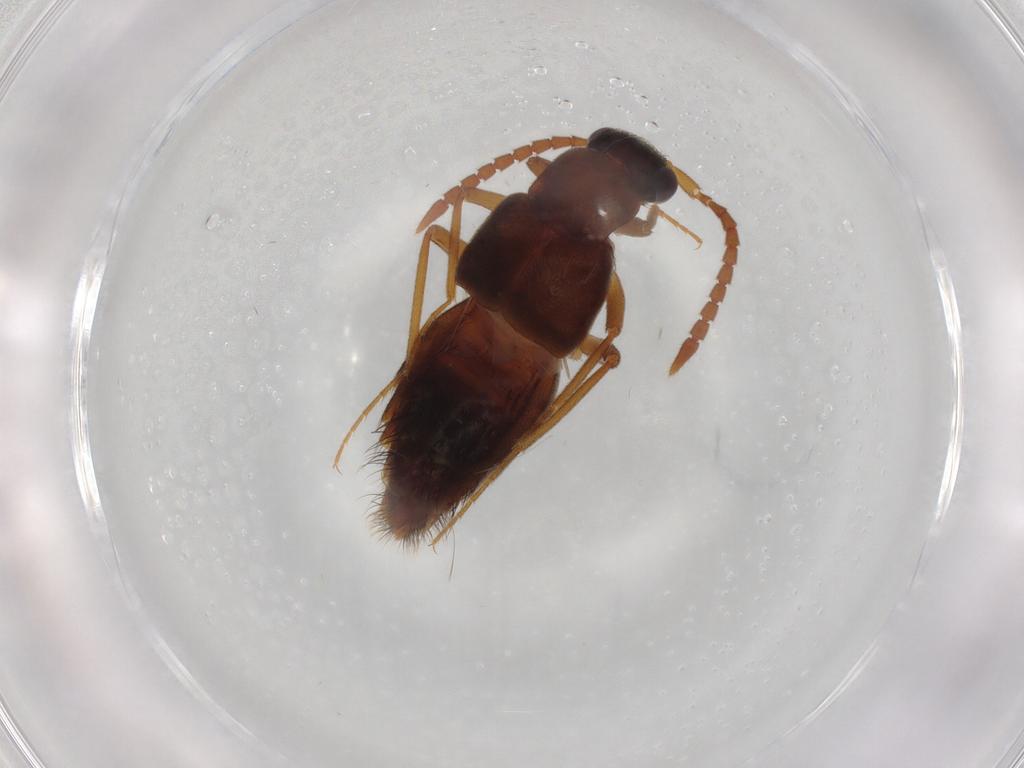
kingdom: Animalia
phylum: Arthropoda
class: Insecta
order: Coleoptera
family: Staphylinidae
